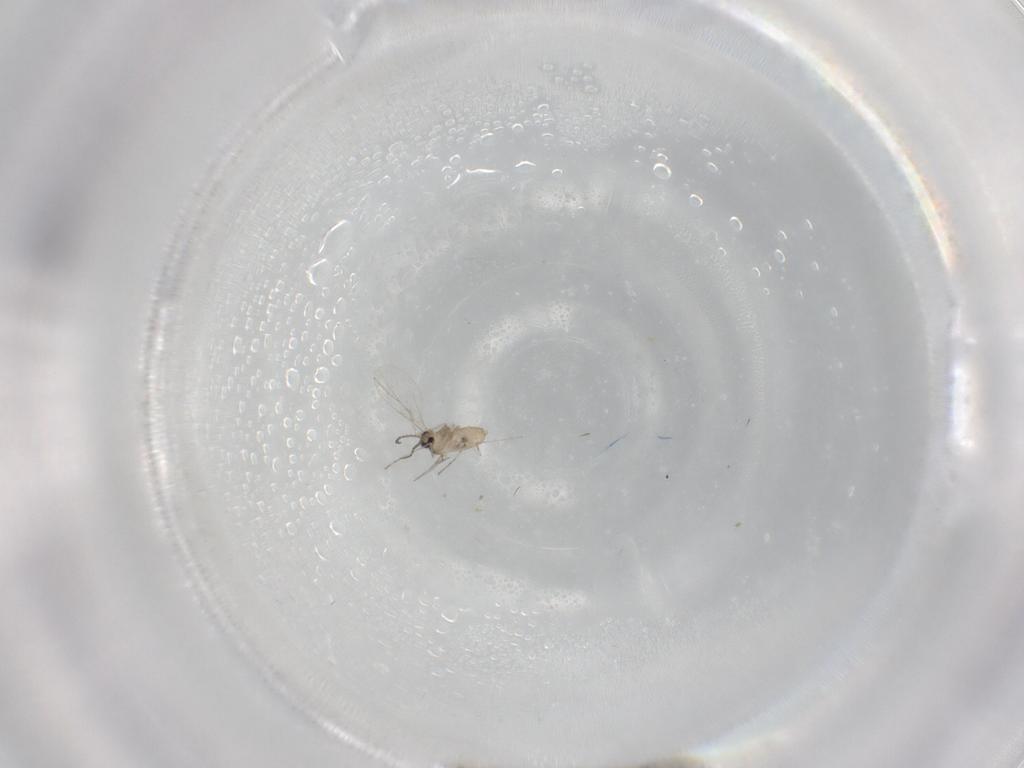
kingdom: Animalia
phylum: Arthropoda
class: Insecta
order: Diptera
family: Cecidomyiidae
